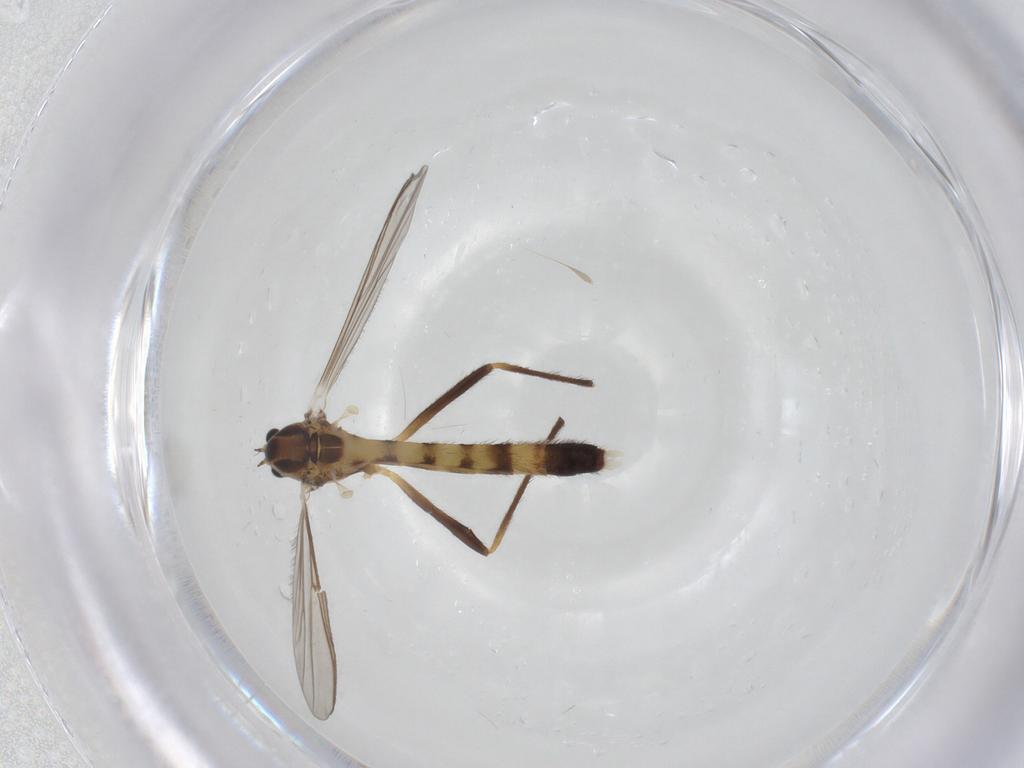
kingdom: Animalia
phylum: Arthropoda
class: Insecta
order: Diptera
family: Chironomidae
